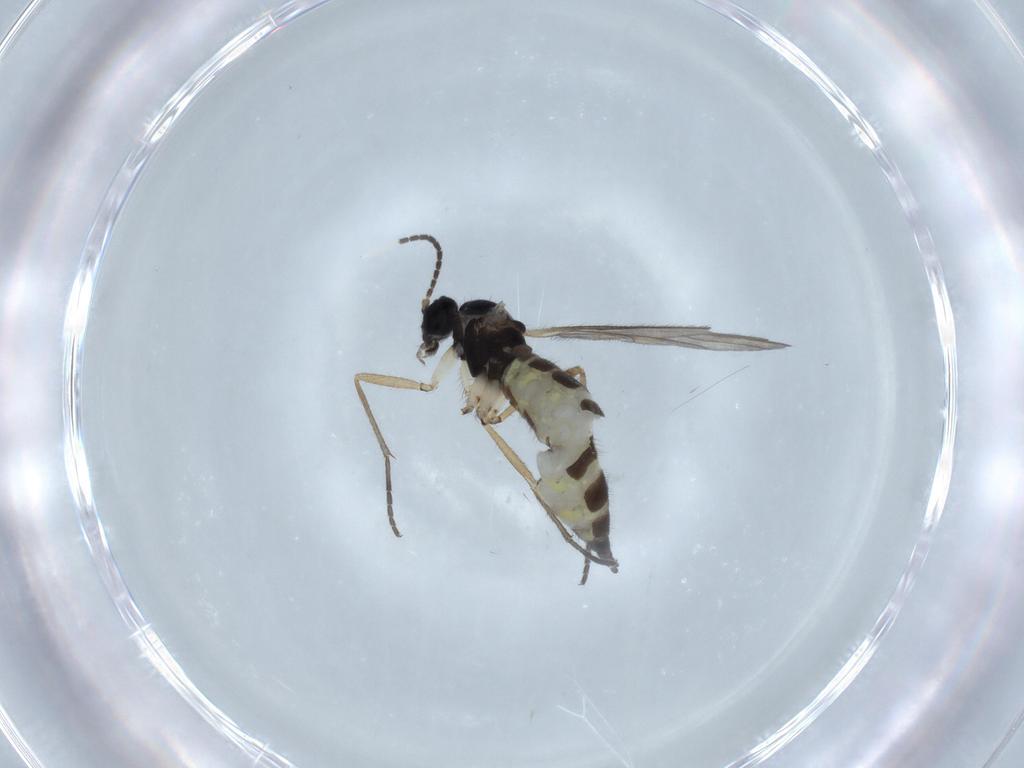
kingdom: Animalia
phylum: Arthropoda
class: Insecta
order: Diptera
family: Sciaridae
